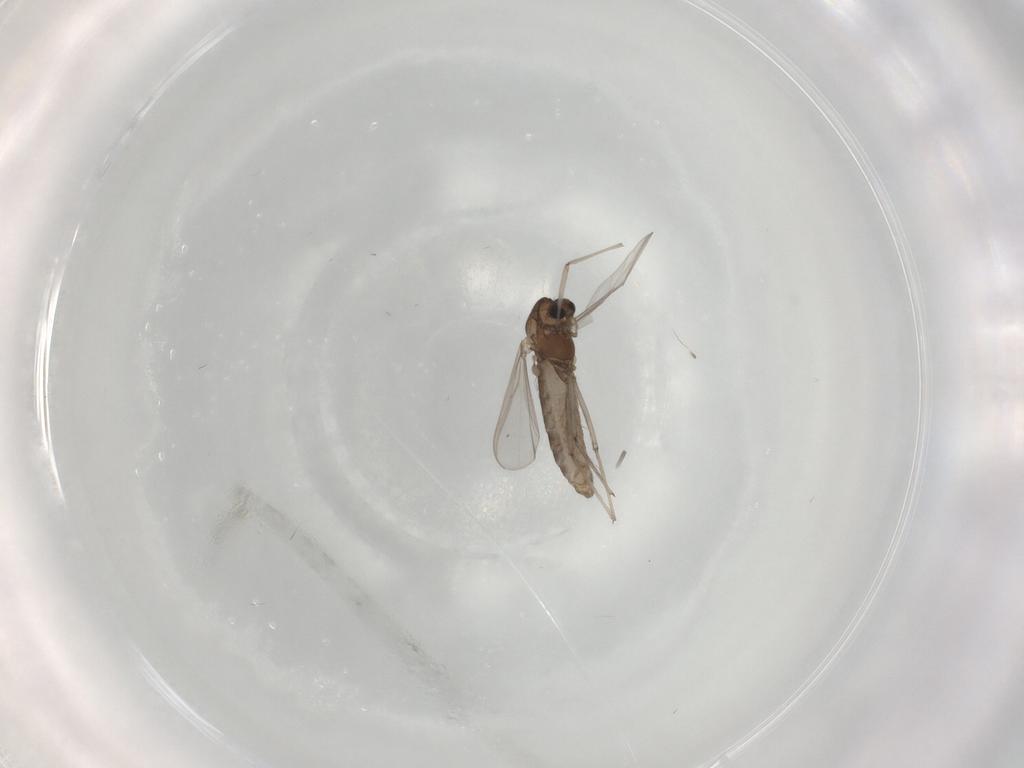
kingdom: Animalia
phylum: Arthropoda
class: Insecta
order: Diptera
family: Chironomidae
